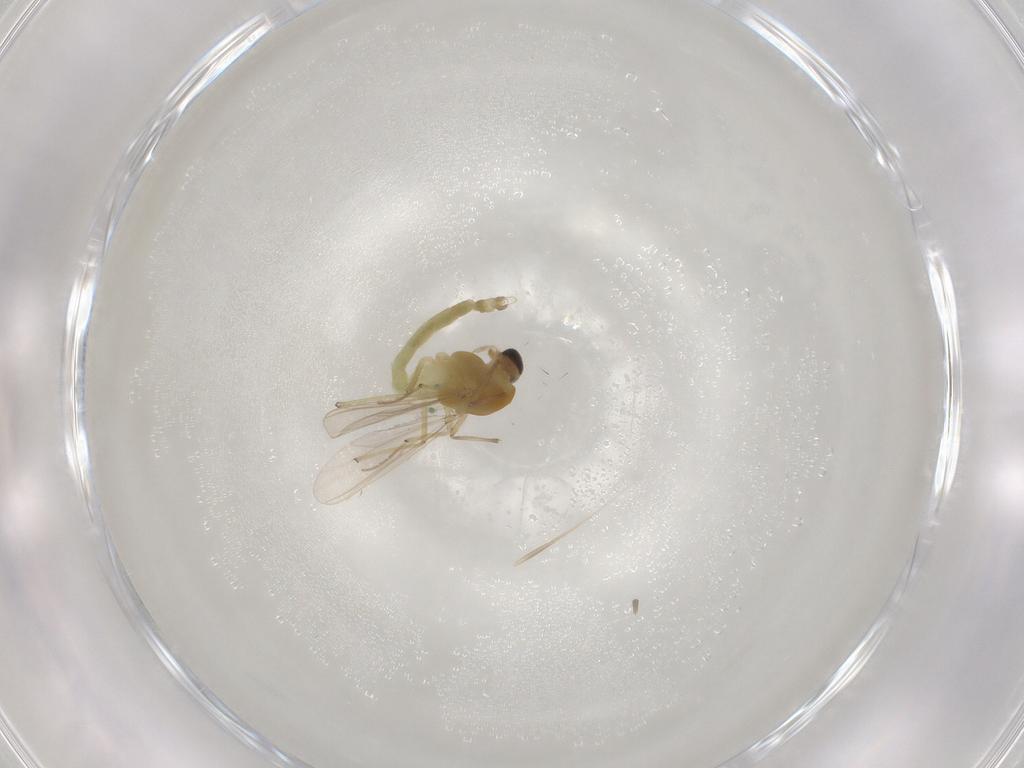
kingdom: Animalia
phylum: Arthropoda
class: Insecta
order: Diptera
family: Chironomidae
